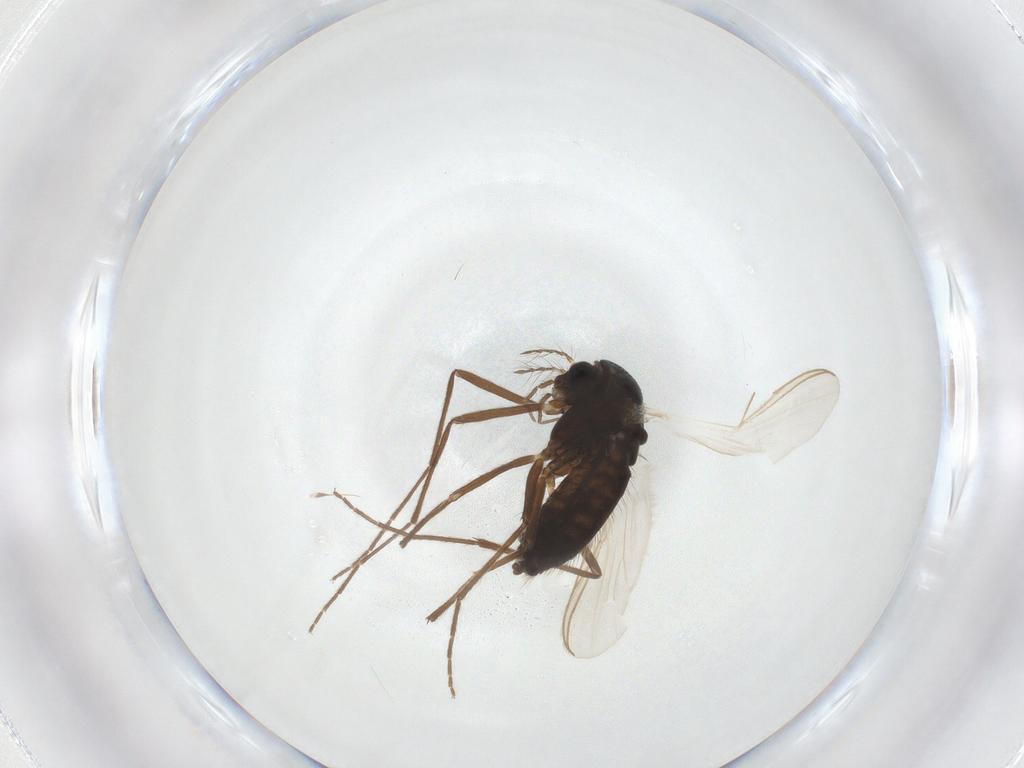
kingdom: Animalia
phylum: Arthropoda
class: Insecta
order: Diptera
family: Chironomidae
